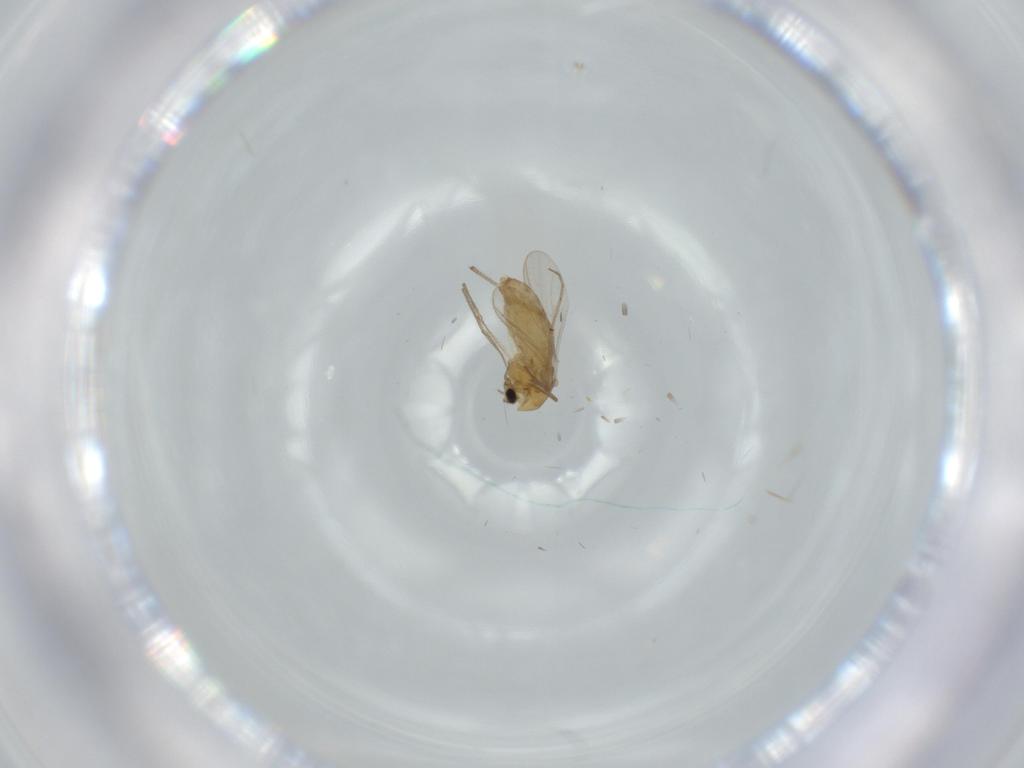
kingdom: Animalia
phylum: Arthropoda
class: Insecta
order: Diptera
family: Chironomidae
